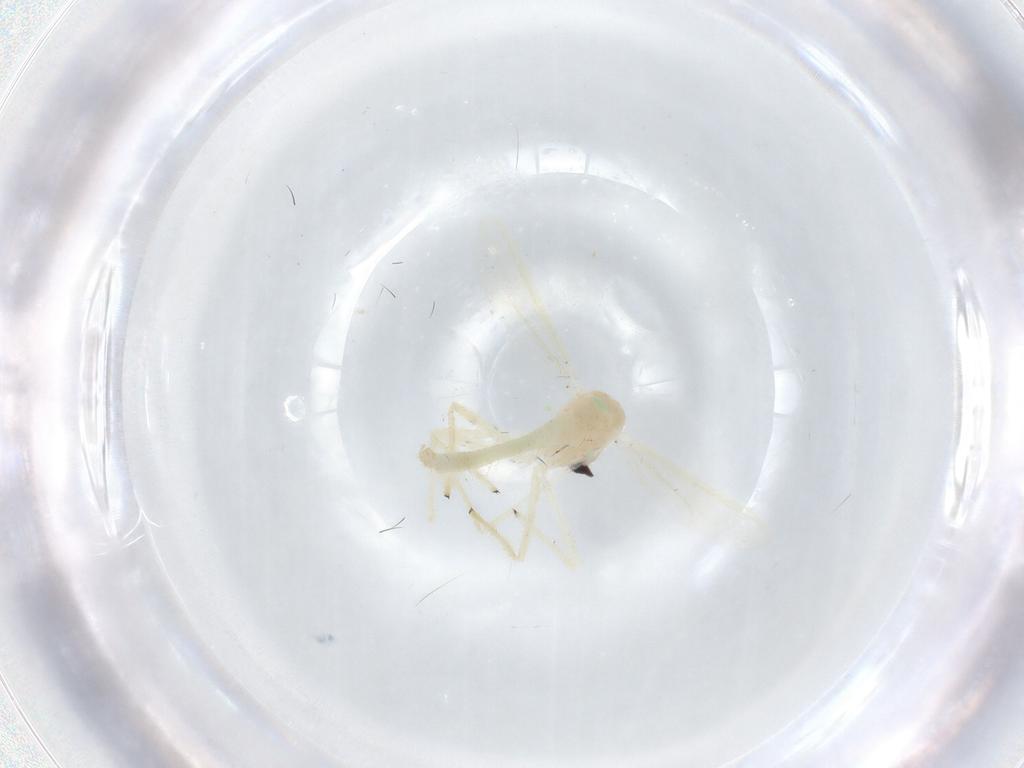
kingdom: Animalia
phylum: Arthropoda
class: Insecta
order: Diptera
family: Chironomidae
